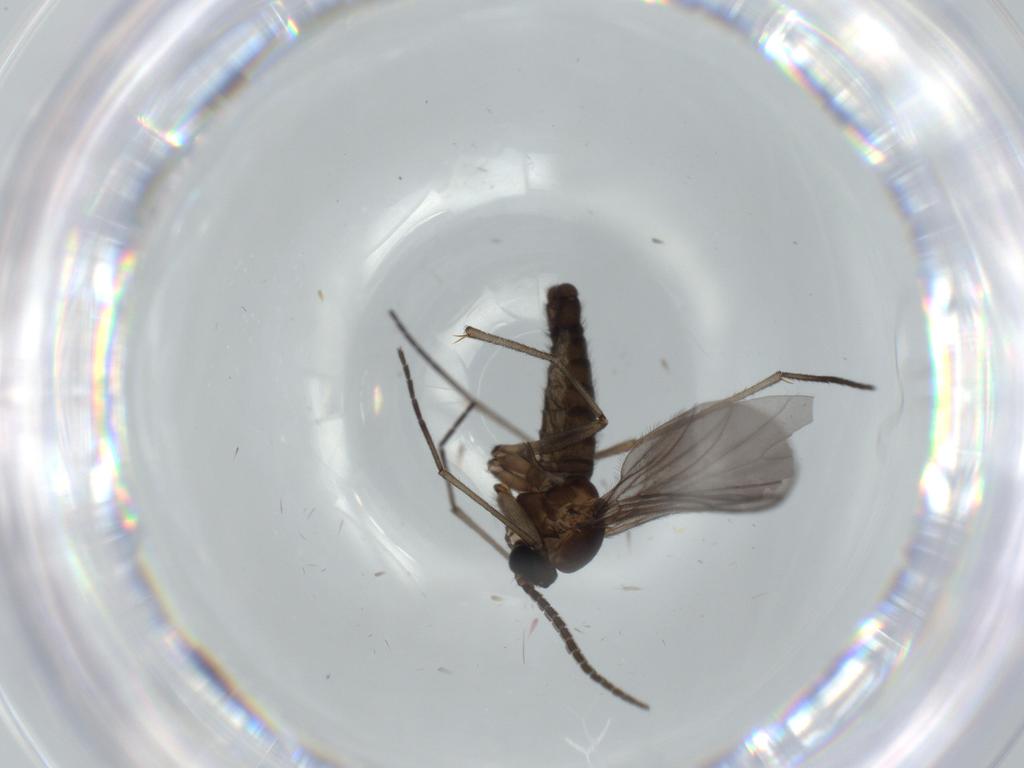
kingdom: Animalia
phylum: Arthropoda
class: Insecta
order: Diptera
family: Sciaridae
